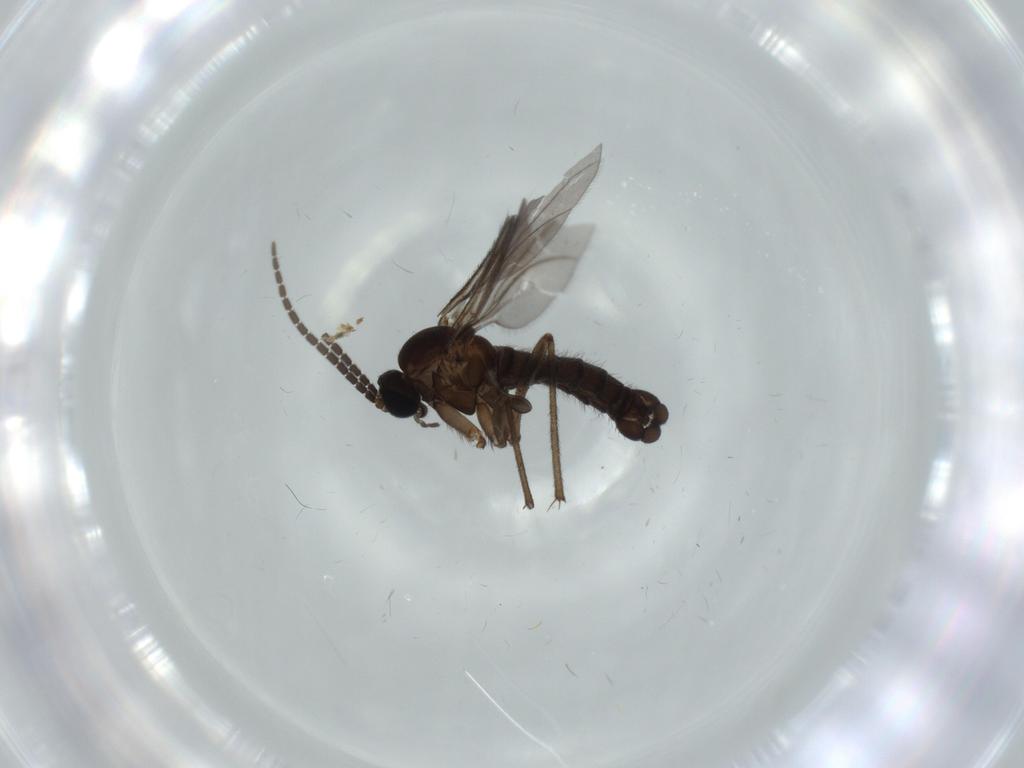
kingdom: Animalia
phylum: Arthropoda
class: Insecta
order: Diptera
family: Sciaridae
